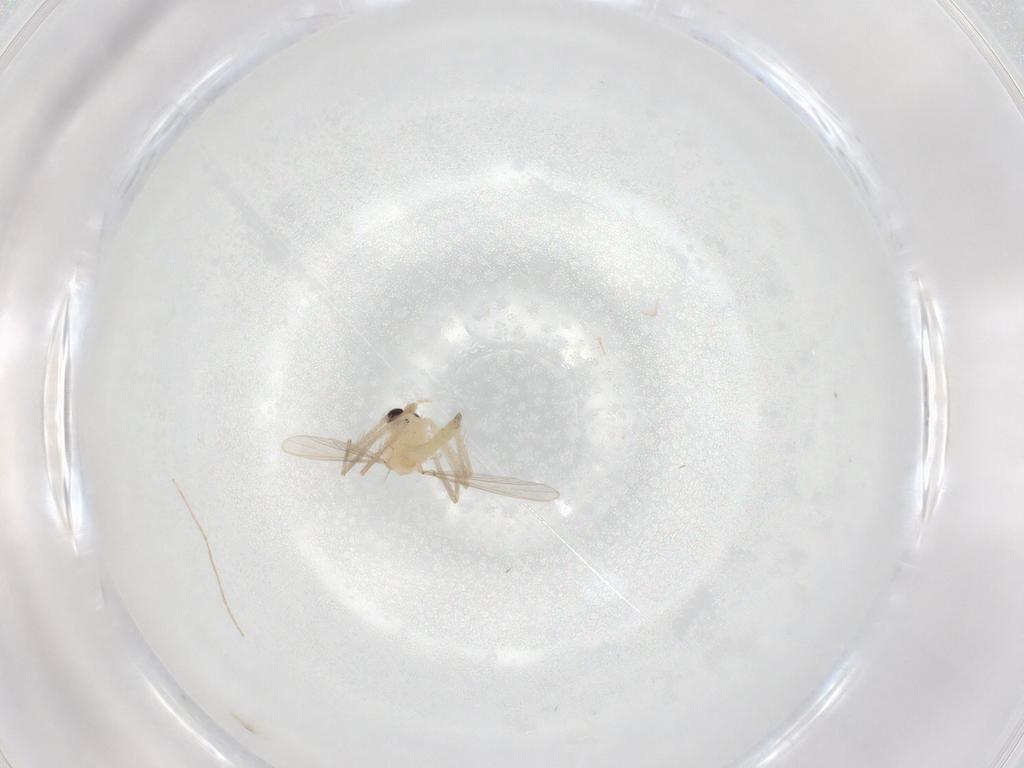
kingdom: Animalia
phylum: Arthropoda
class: Insecta
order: Diptera
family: Chironomidae
